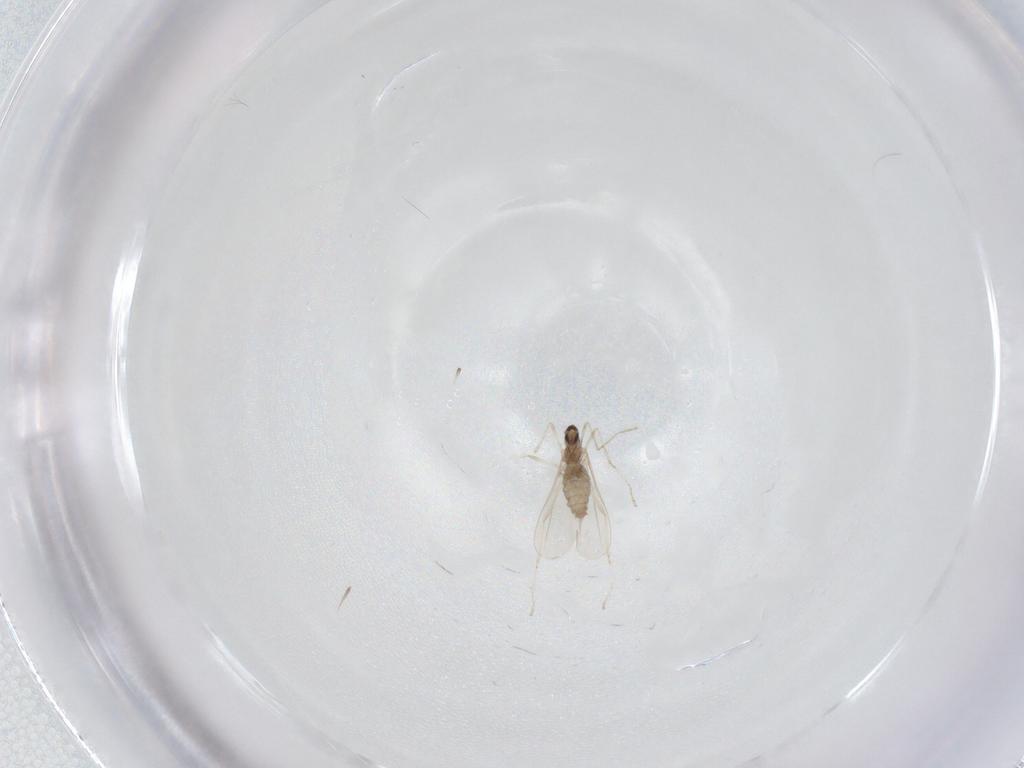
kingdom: Animalia
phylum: Arthropoda
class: Insecta
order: Diptera
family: Cecidomyiidae
